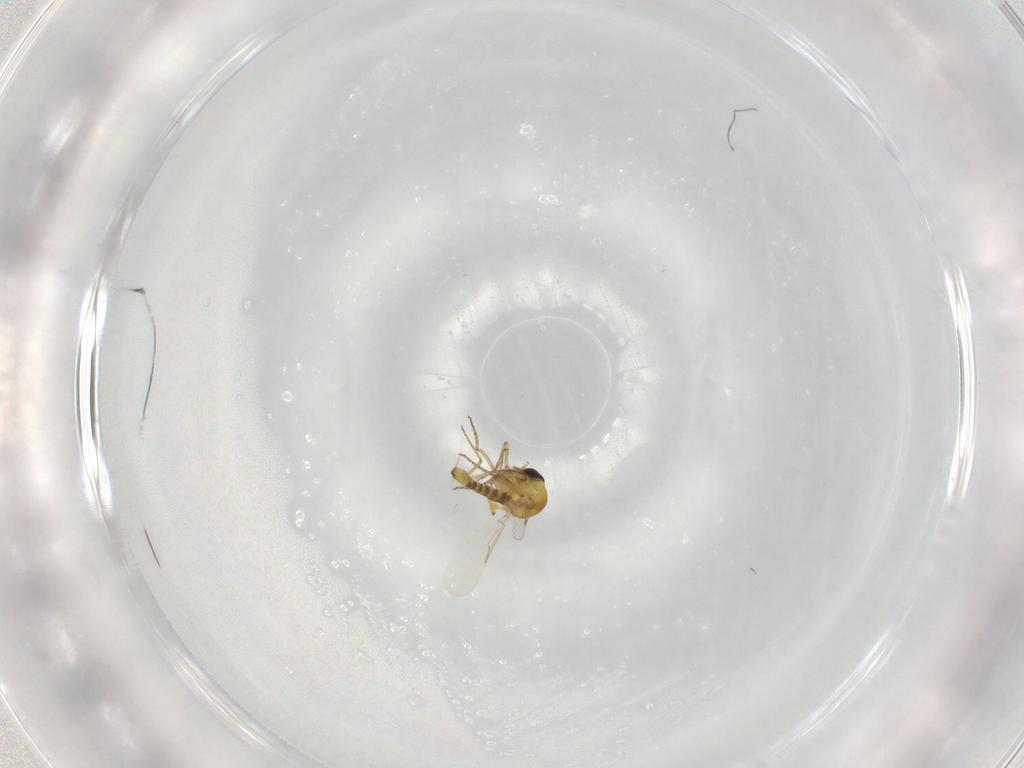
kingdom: Animalia
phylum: Arthropoda
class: Insecta
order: Diptera
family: Ceratopogonidae
